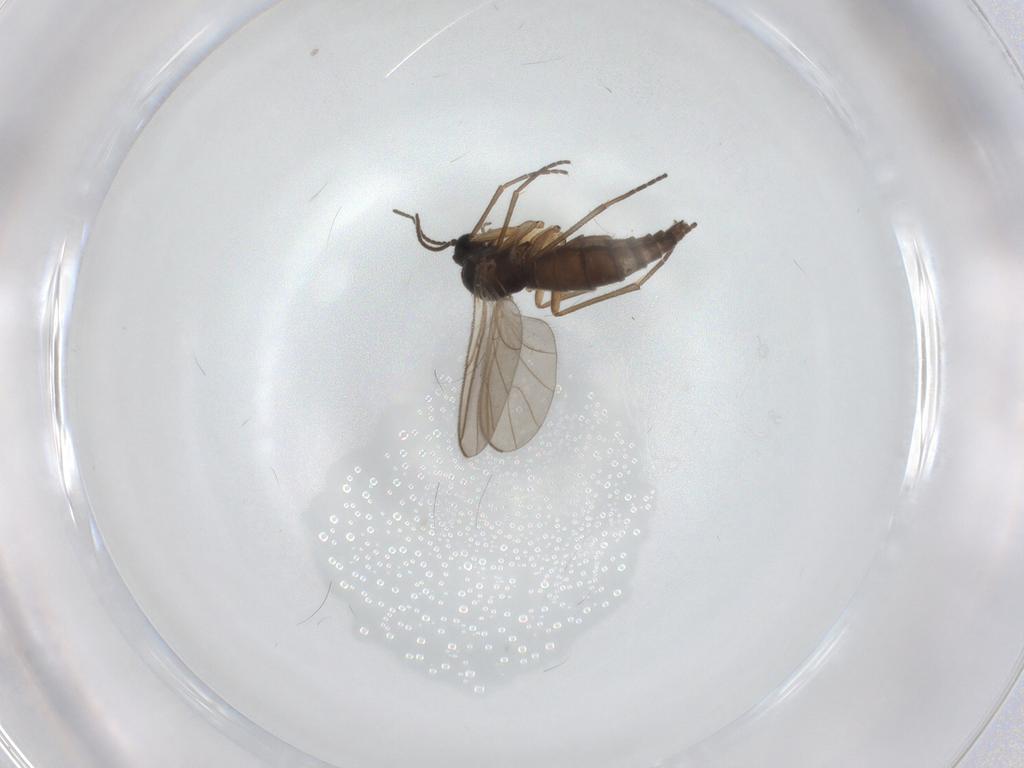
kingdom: Animalia
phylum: Arthropoda
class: Insecta
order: Diptera
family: Sciaridae
